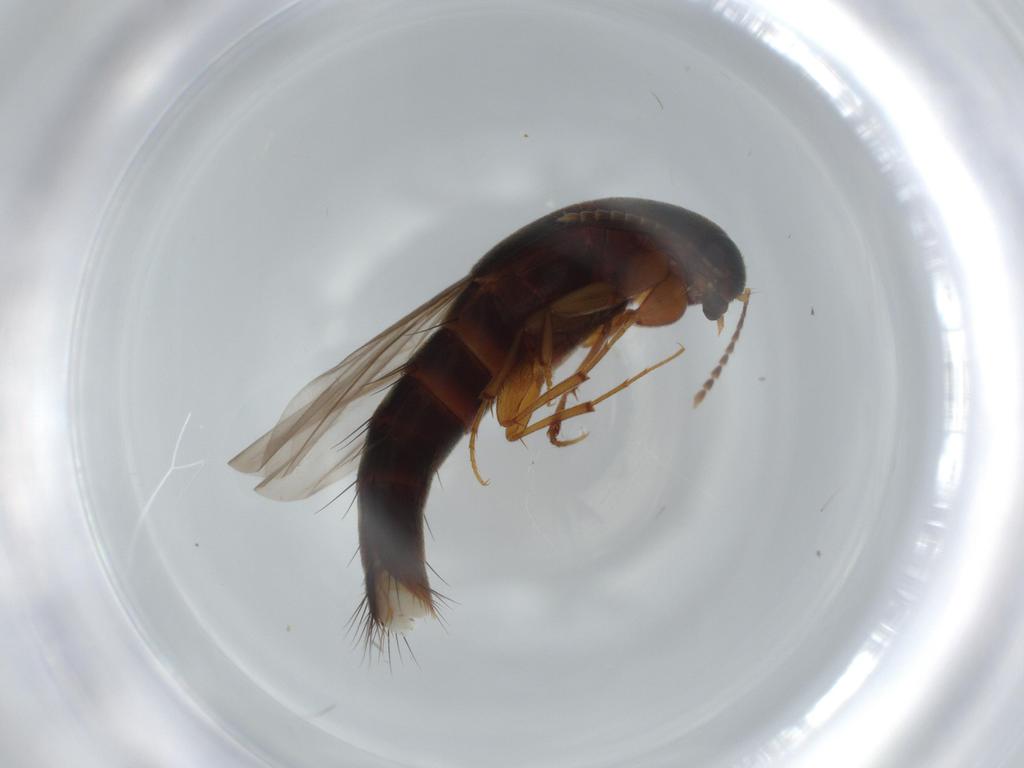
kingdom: Animalia
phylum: Arthropoda
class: Insecta
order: Coleoptera
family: Staphylinidae
